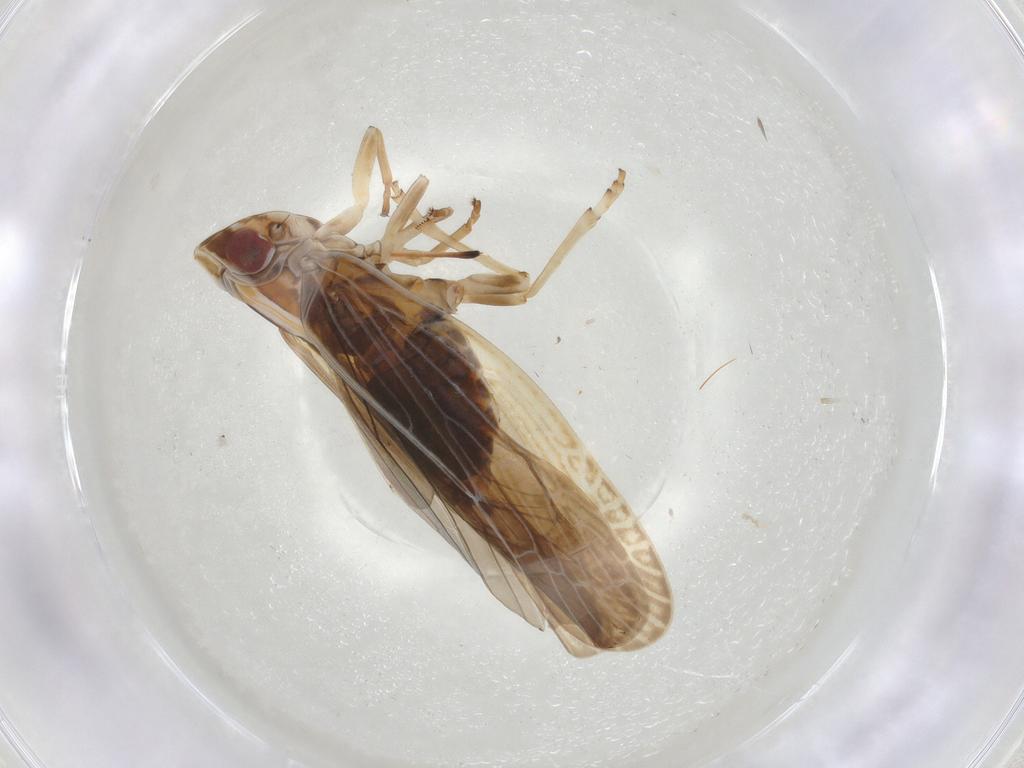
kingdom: Animalia
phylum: Arthropoda
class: Insecta
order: Hemiptera
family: Achilidae
